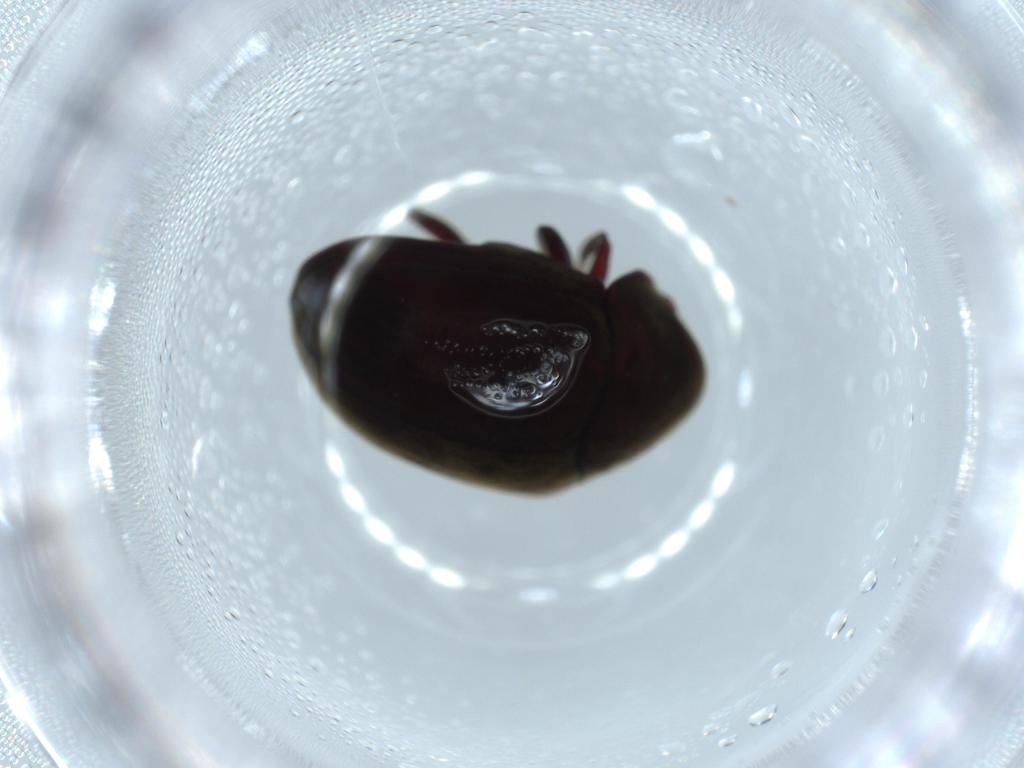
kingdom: Animalia
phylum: Arthropoda
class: Insecta
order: Coleoptera
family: Ptinidae
